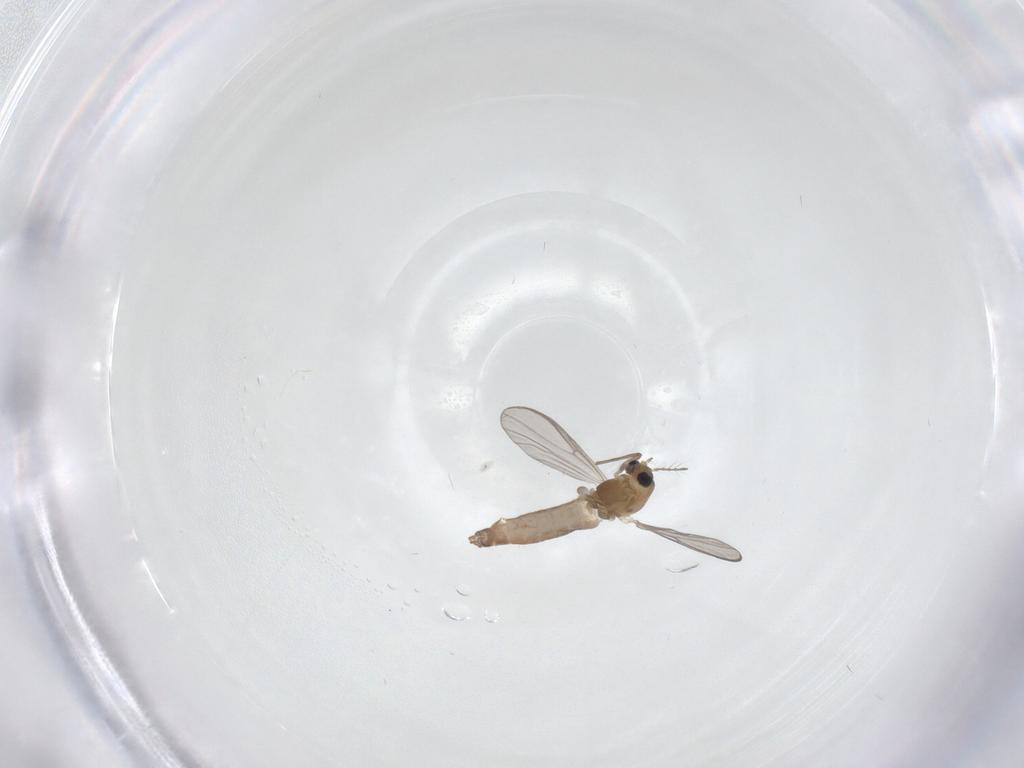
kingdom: Animalia
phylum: Arthropoda
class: Insecta
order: Diptera
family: Chironomidae
